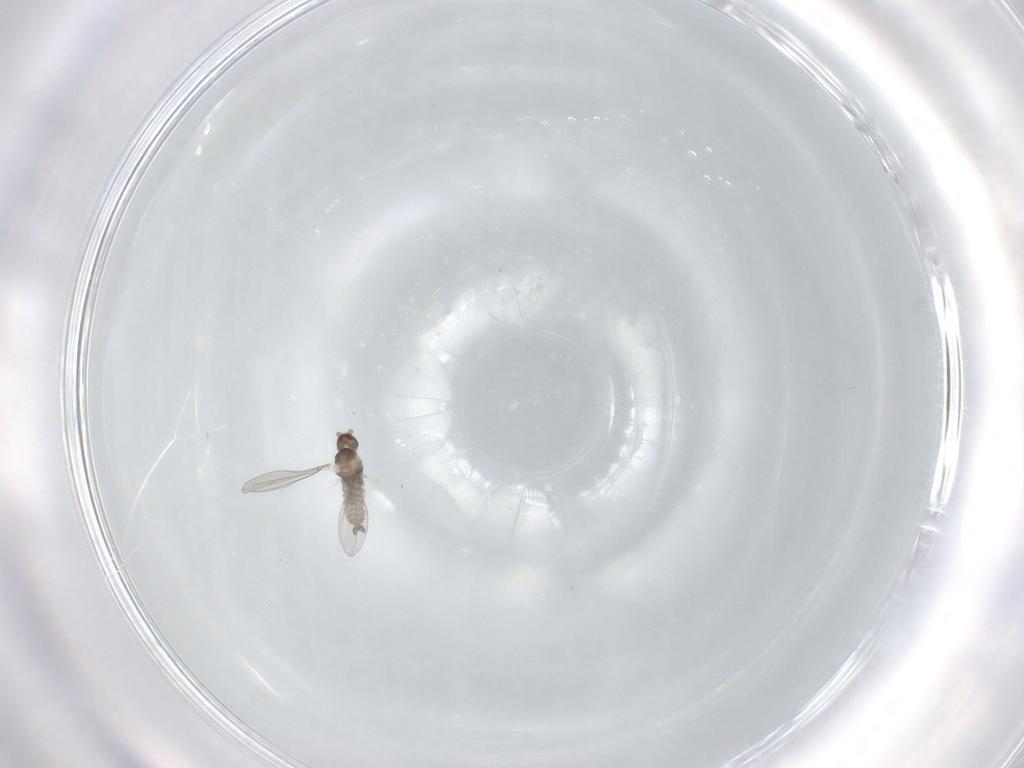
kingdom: Animalia
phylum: Arthropoda
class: Insecta
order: Diptera
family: Cecidomyiidae
